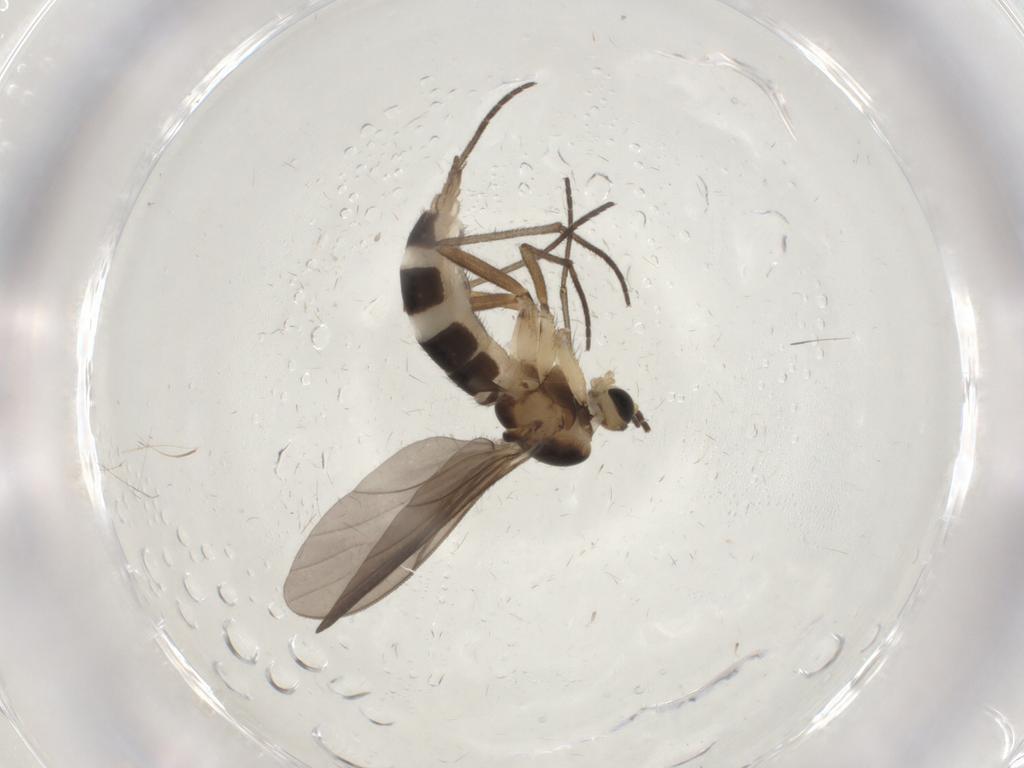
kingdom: Animalia
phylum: Arthropoda
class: Insecta
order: Diptera
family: Sciaridae
